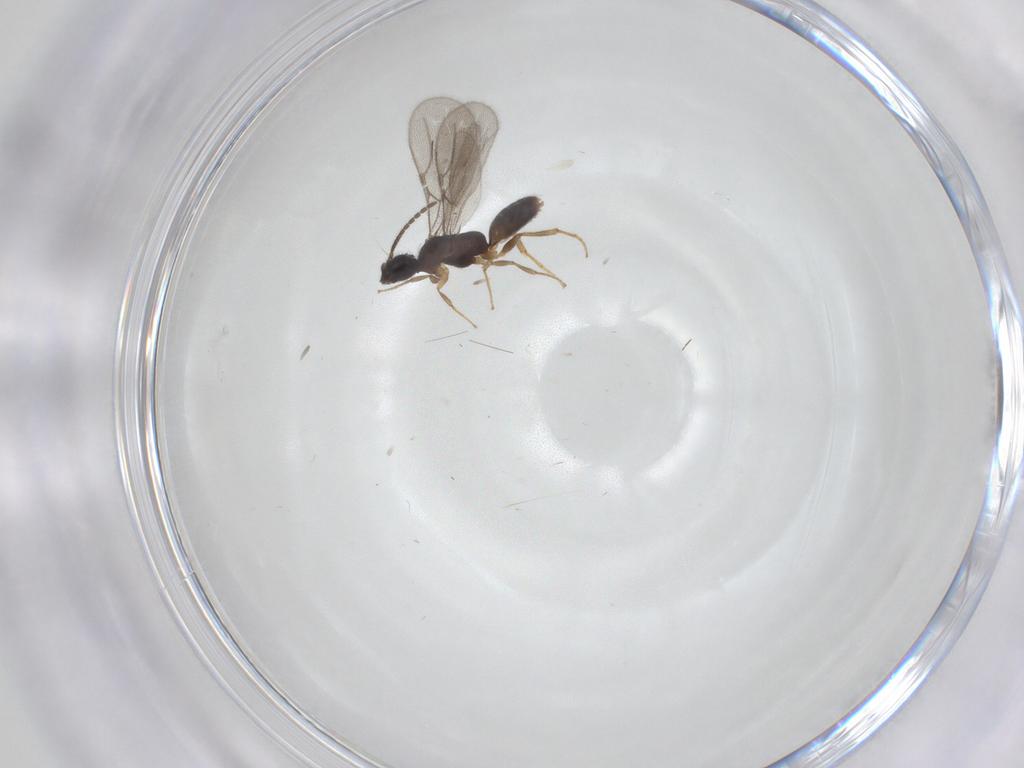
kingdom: Animalia
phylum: Arthropoda
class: Insecta
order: Hymenoptera
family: Bethylidae
